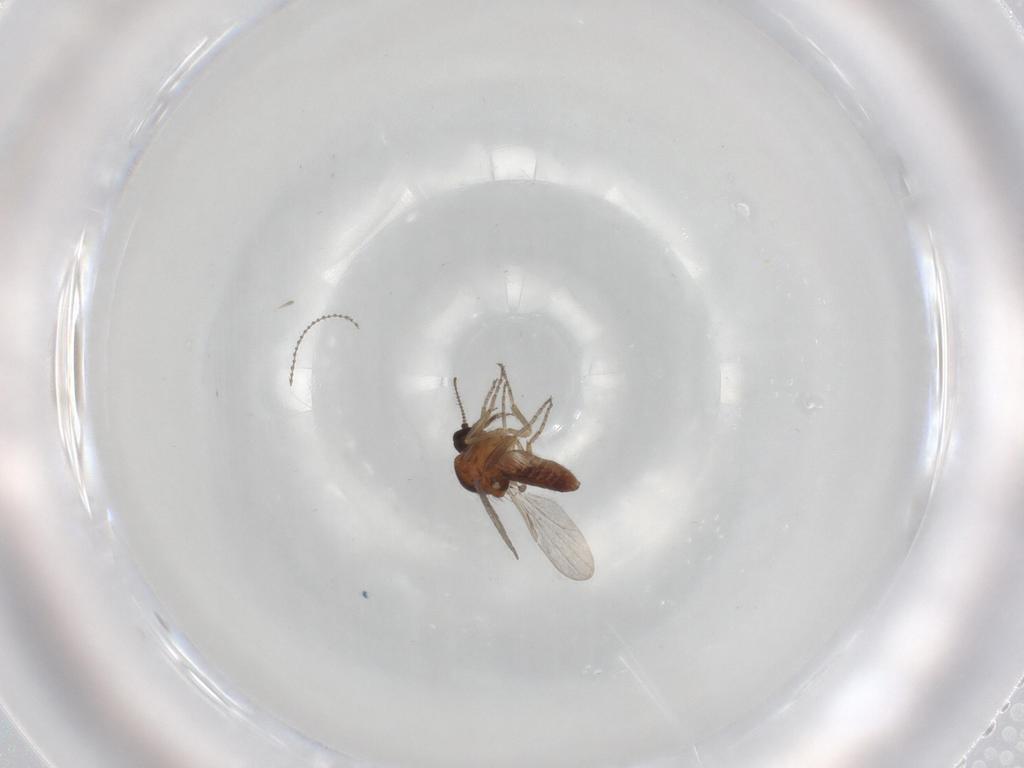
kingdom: Animalia
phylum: Arthropoda
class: Insecta
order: Diptera
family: Ceratopogonidae
